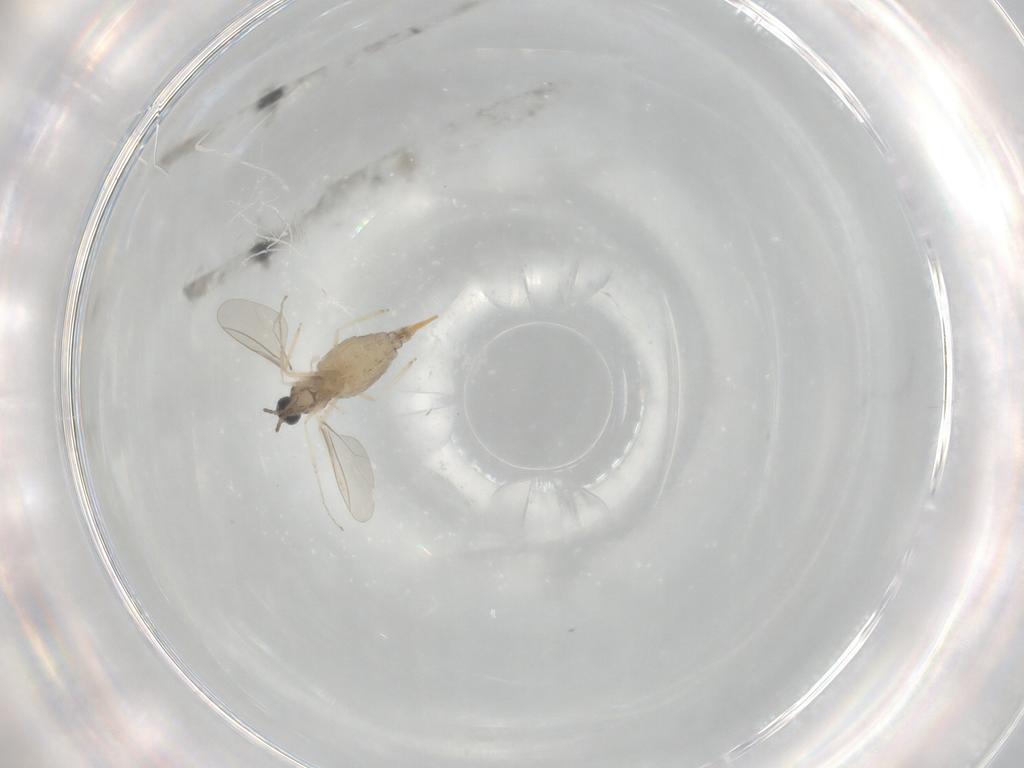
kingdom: Animalia
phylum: Arthropoda
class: Insecta
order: Diptera
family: Cecidomyiidae
